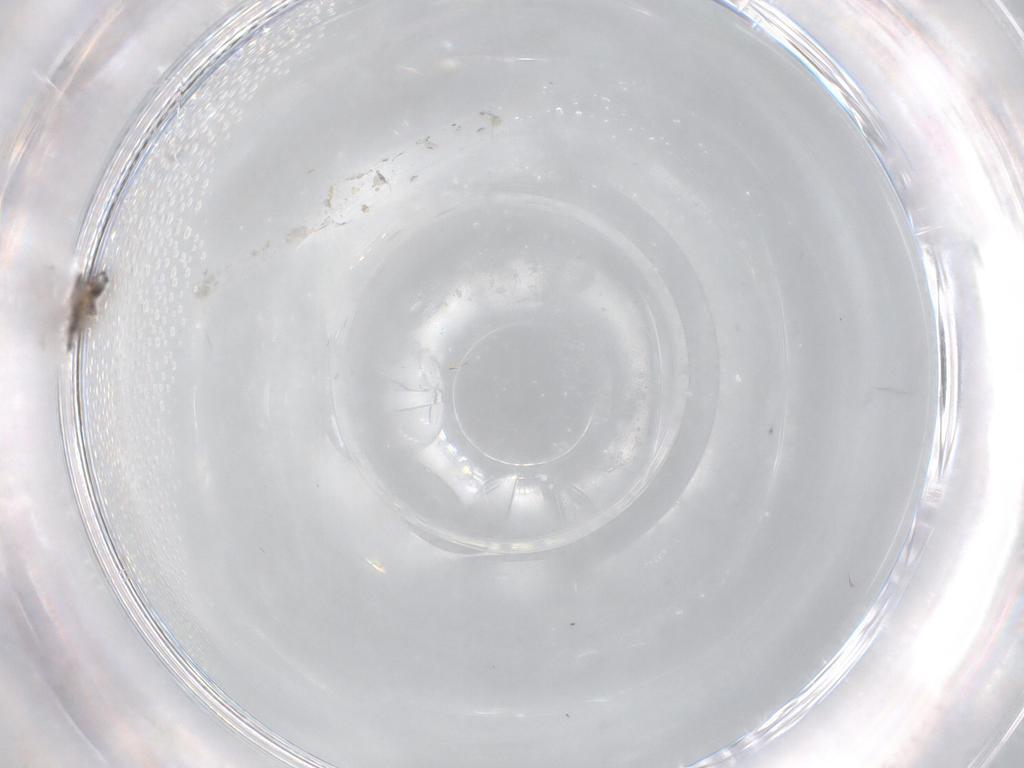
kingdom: Animalia
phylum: Arthropoda
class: Insecta
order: Diptera
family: Cecidomyiidae
